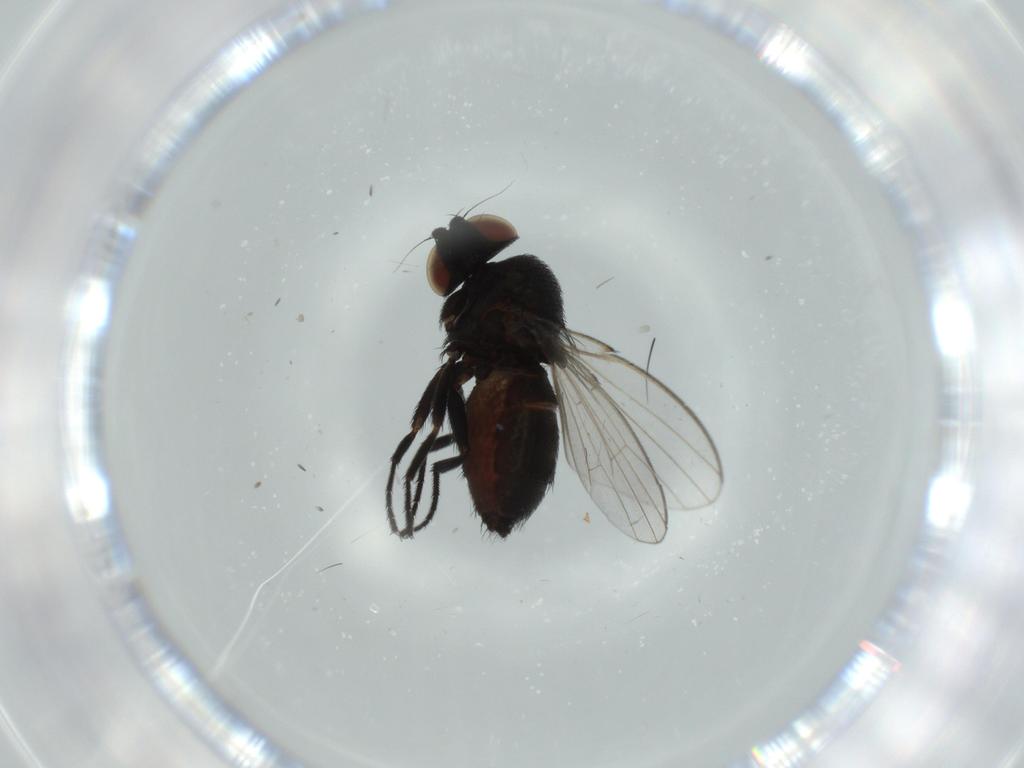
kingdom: Animalia
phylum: Arthropoda
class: Insecta
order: Diptera
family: Milichiidae
